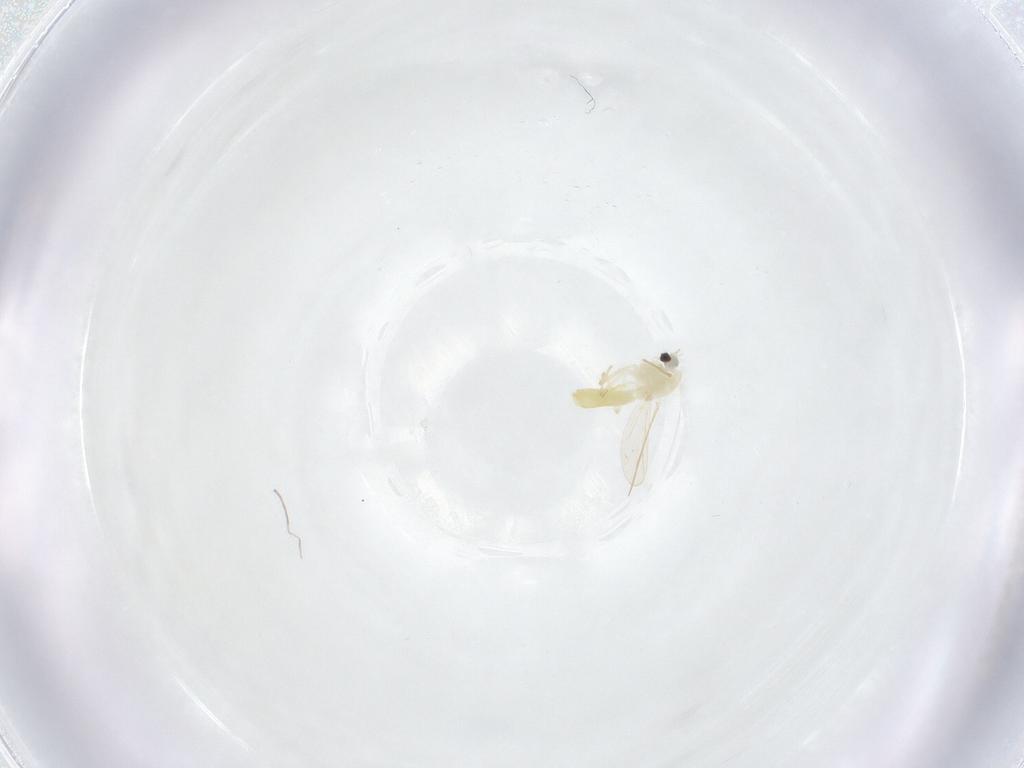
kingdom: Animalia
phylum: Arthropoda
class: Insecta
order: Diptera
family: Chironomidae
